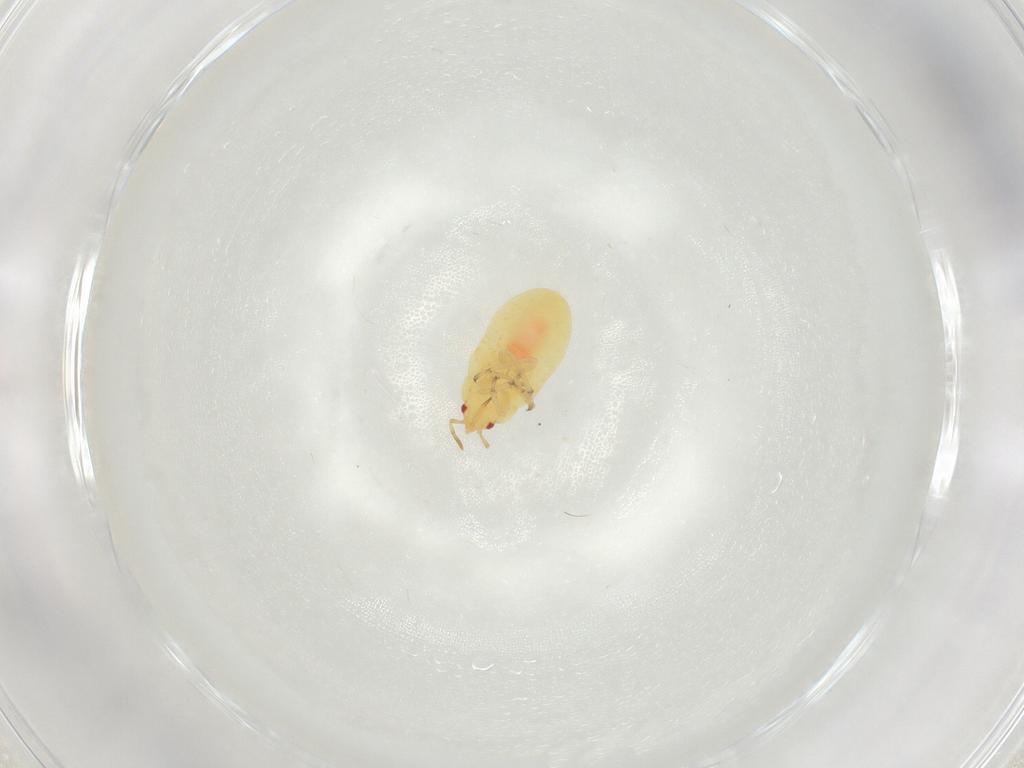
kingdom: Animalia
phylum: Arthropoda
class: Insecta
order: Hemiptera
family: Anthocoridae
